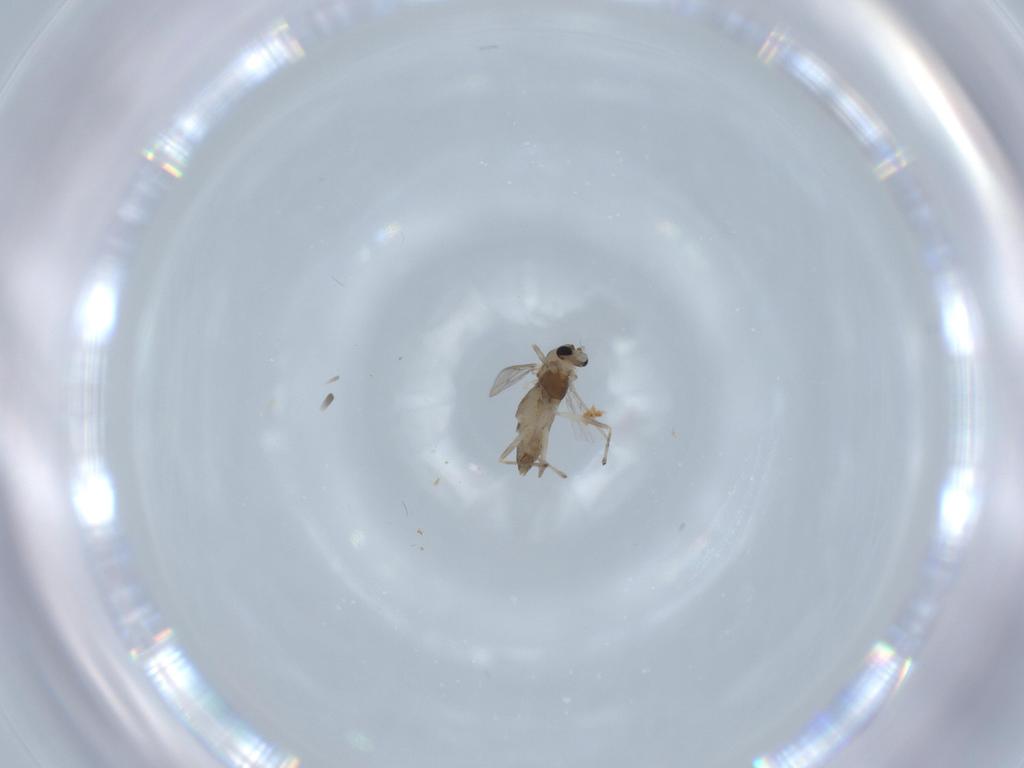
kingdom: Animalia
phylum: Arthropoda
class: Insecta
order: Diptera
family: Chironomidae
